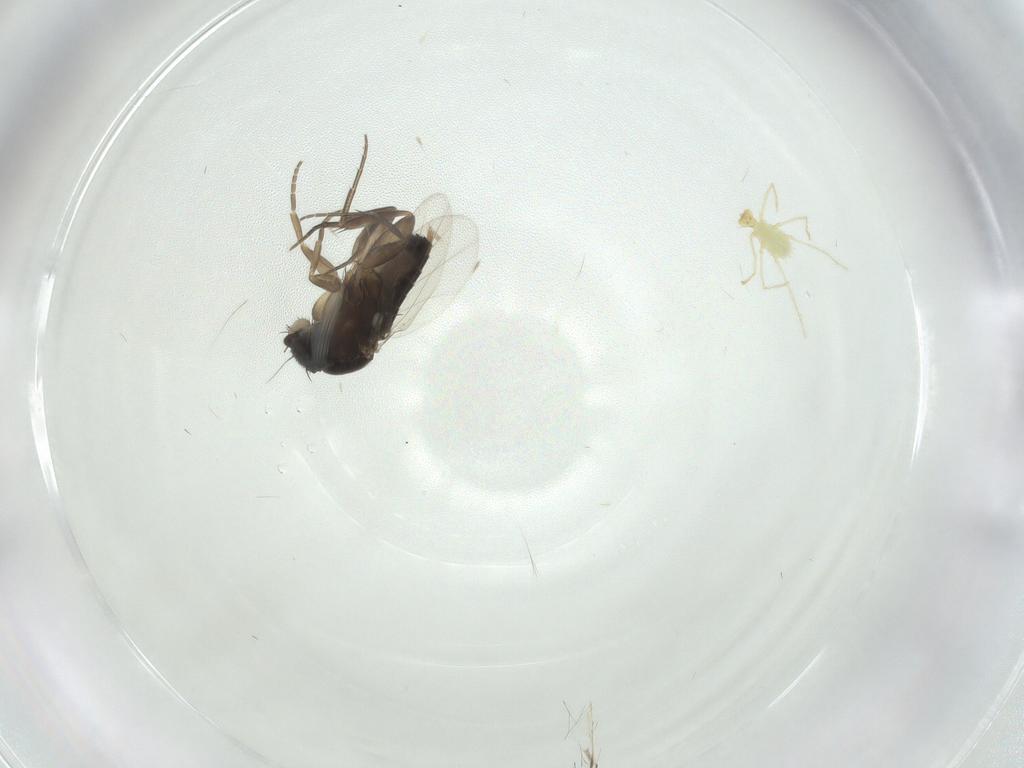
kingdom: Animalia
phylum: Arthropoda
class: Insecta
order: Diptera
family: Phoridae
